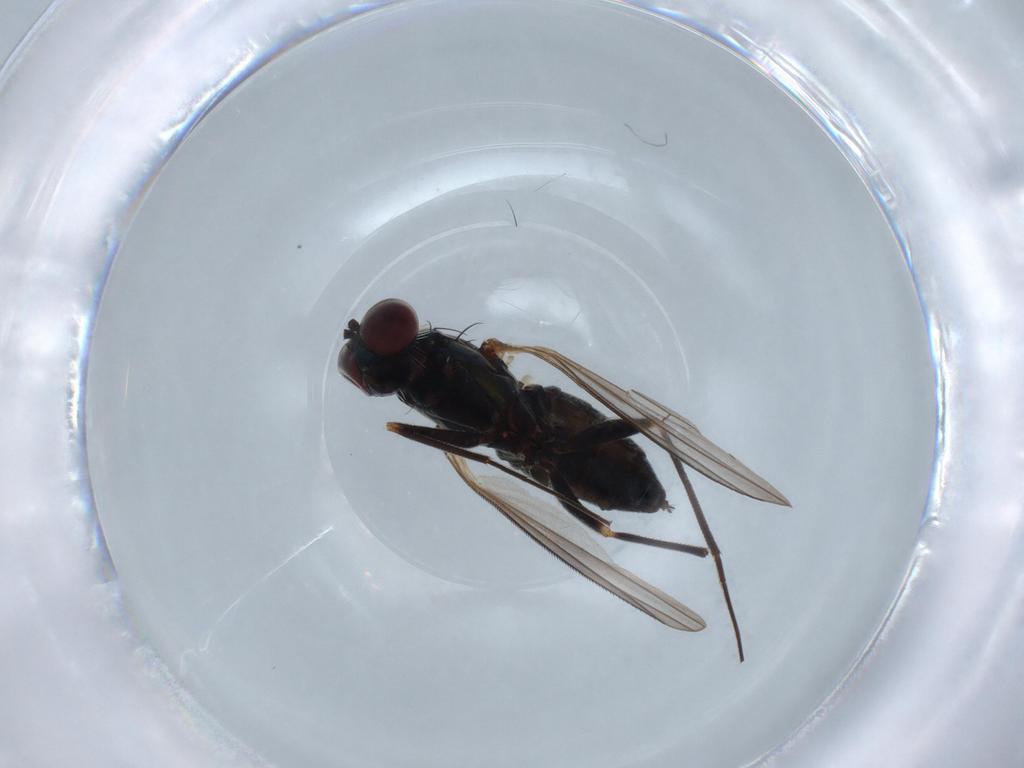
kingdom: Animalia
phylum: Arthropoda
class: Insecta
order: Diptera
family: Dolichopodidae
